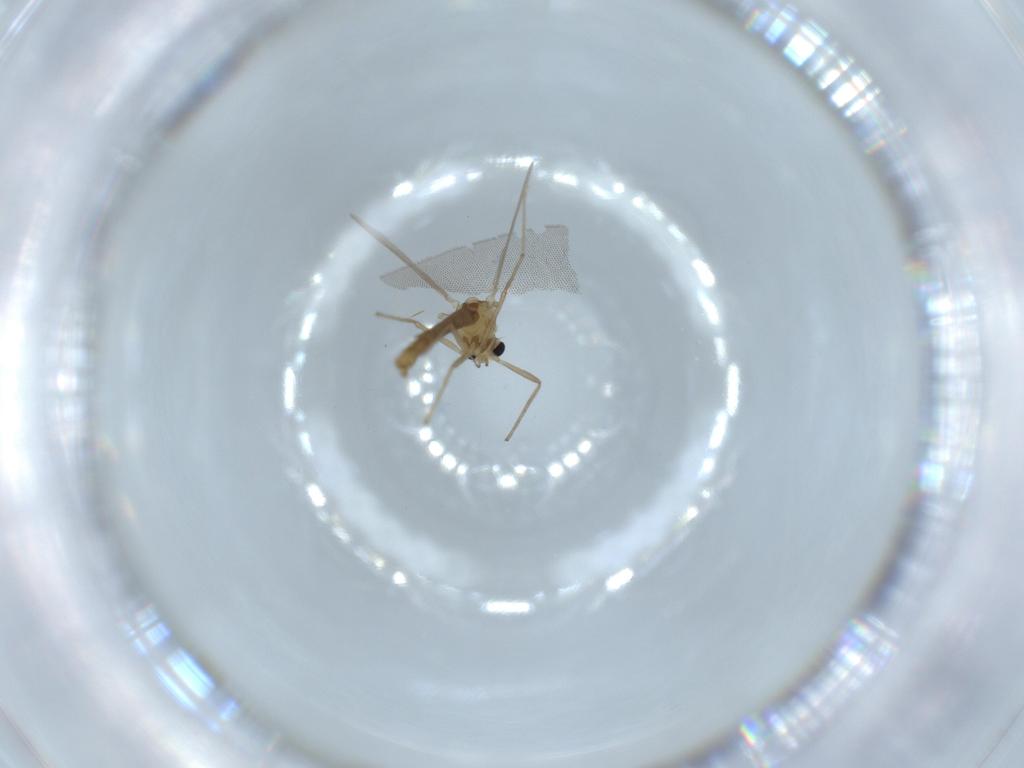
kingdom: Animalia
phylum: Arthropoda
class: Insecta
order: Diptera
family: Chironomidae
